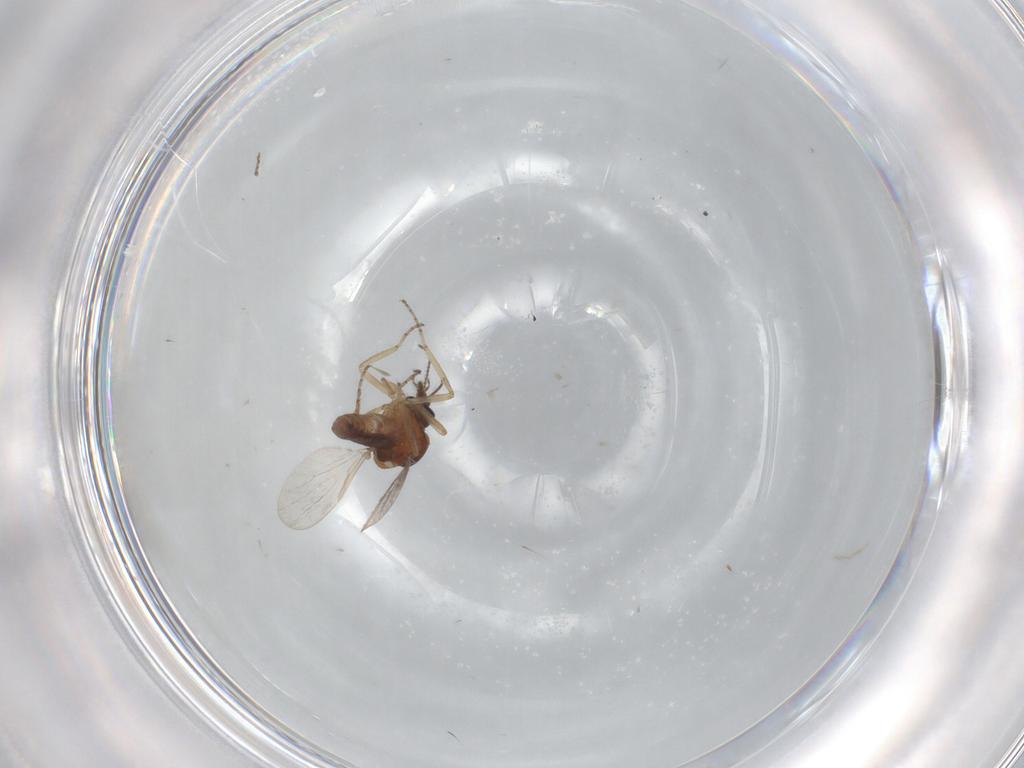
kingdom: Animalia
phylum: Arthropoda
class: Insecta
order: Diptera
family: Ceratopogonidae
